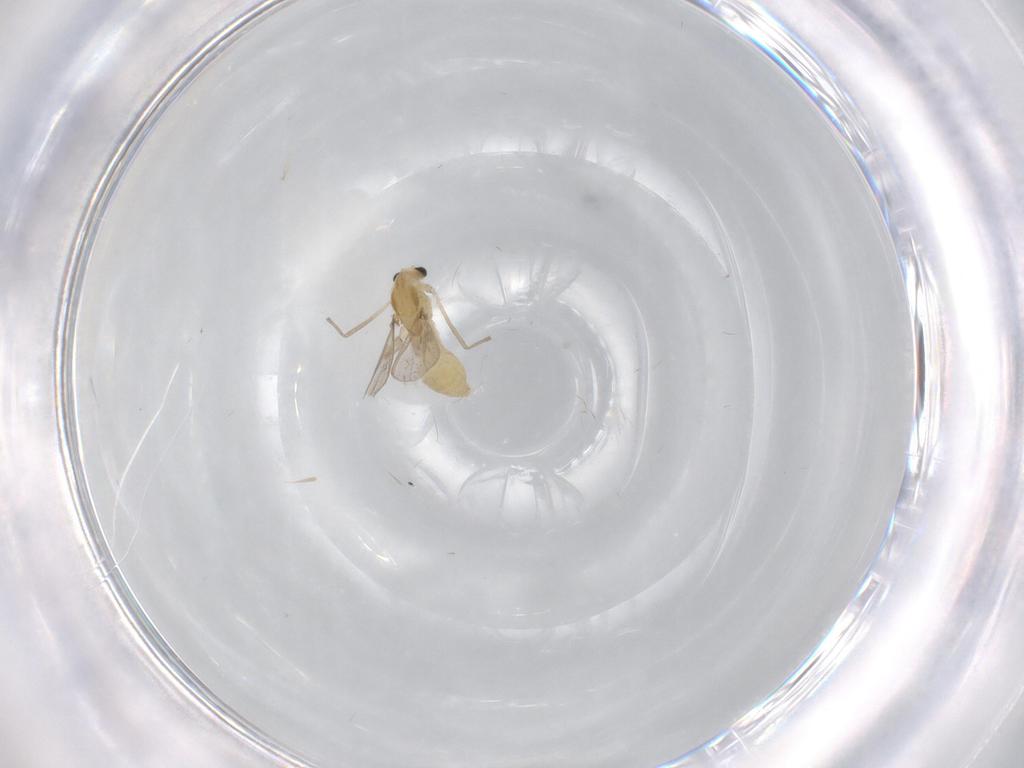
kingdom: Animalia
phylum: Arthropoda
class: Insecta
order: Diptera
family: Chironomidae
